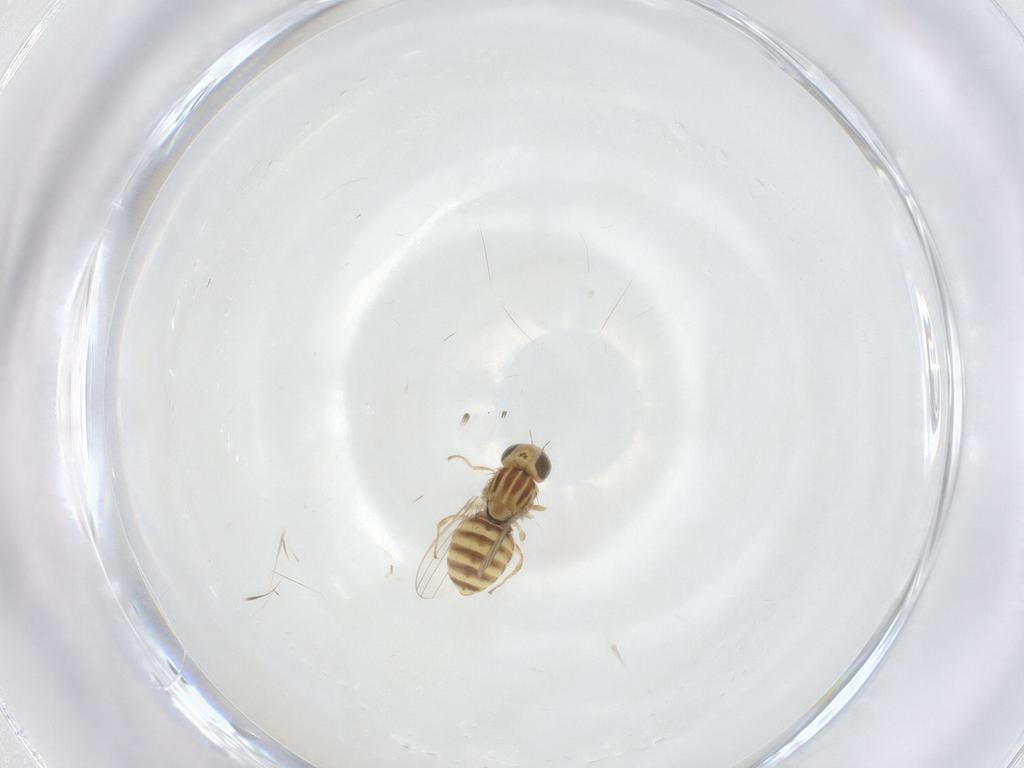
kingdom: Animalia
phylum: Arthropoda
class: Insecta
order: Diptera
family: Chyromyidae
